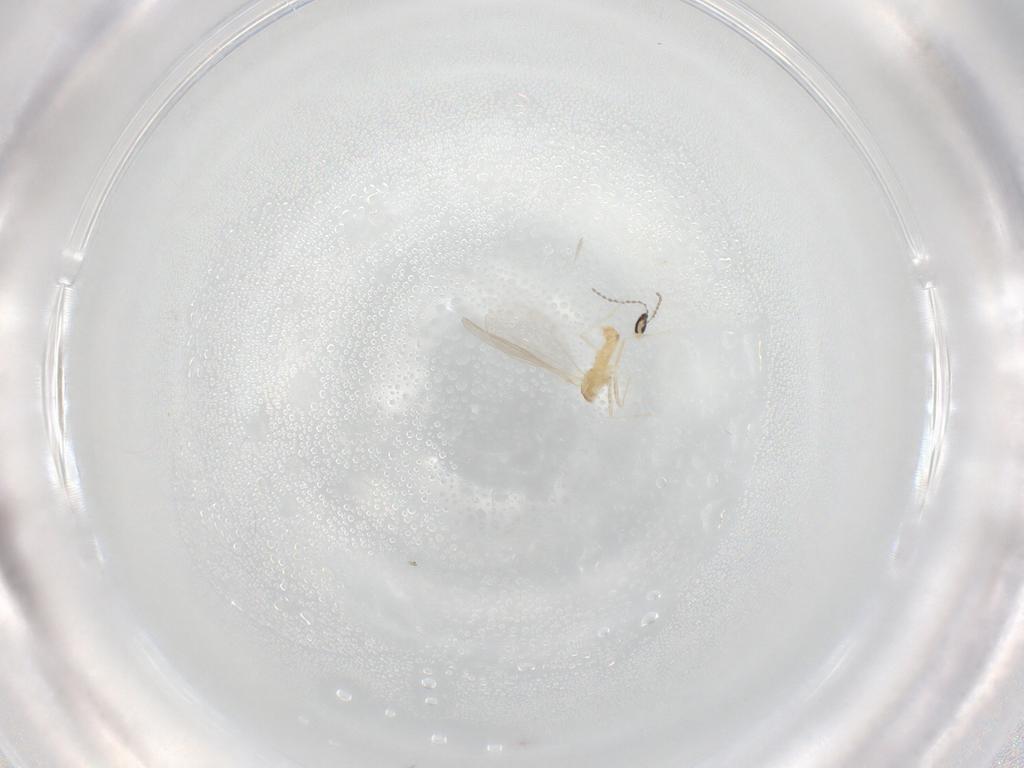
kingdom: Animalia
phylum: Arthropoda
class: Insecta
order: Diptera
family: Cecidomyiidae
